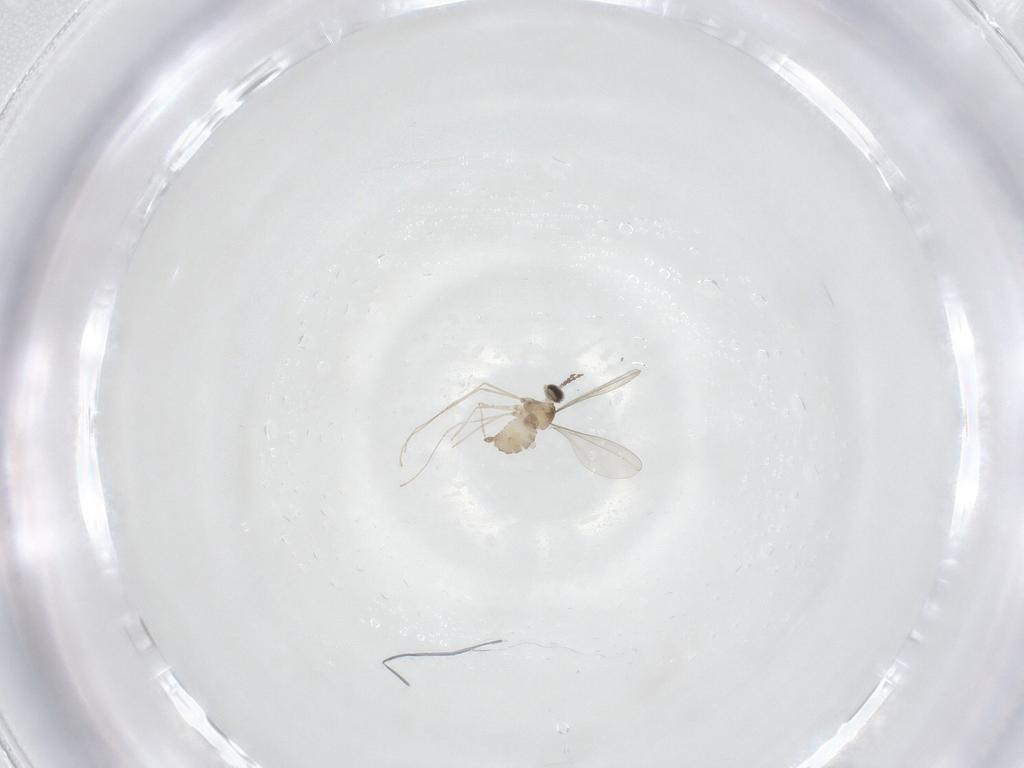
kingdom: Animalia
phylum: Arthropoda
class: Insecta
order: Diptera
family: Cecidomyiidae
